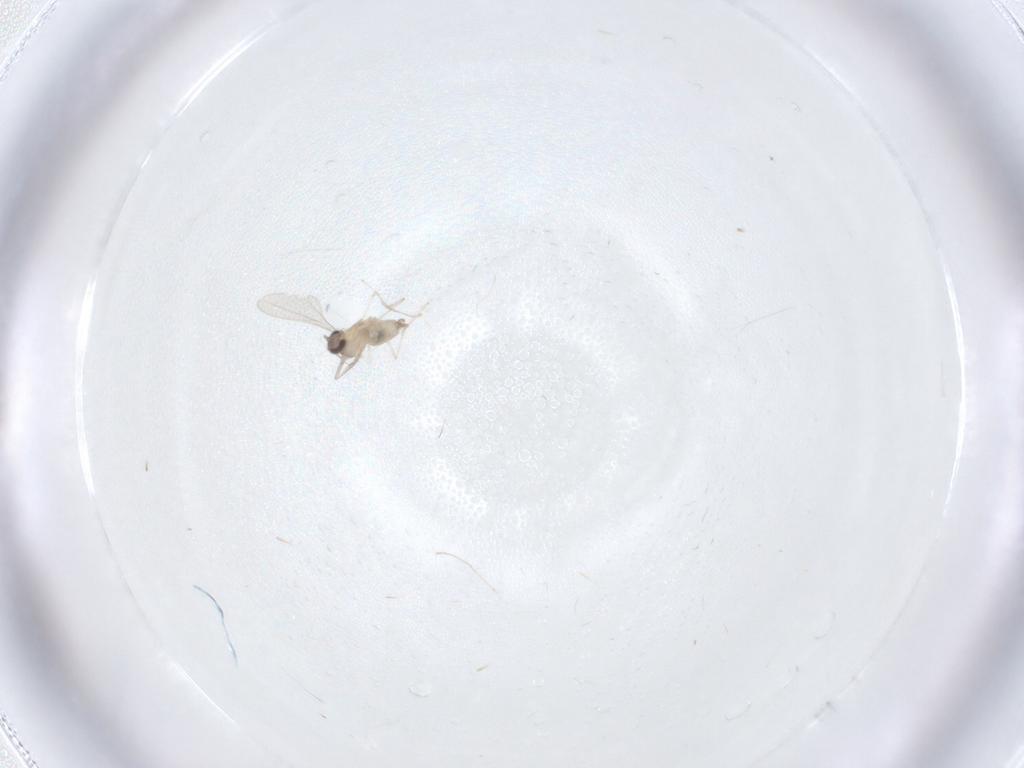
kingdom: Animalia
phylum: Arthropoda
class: Insecta
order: Diptera
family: Cecidomyiidae
